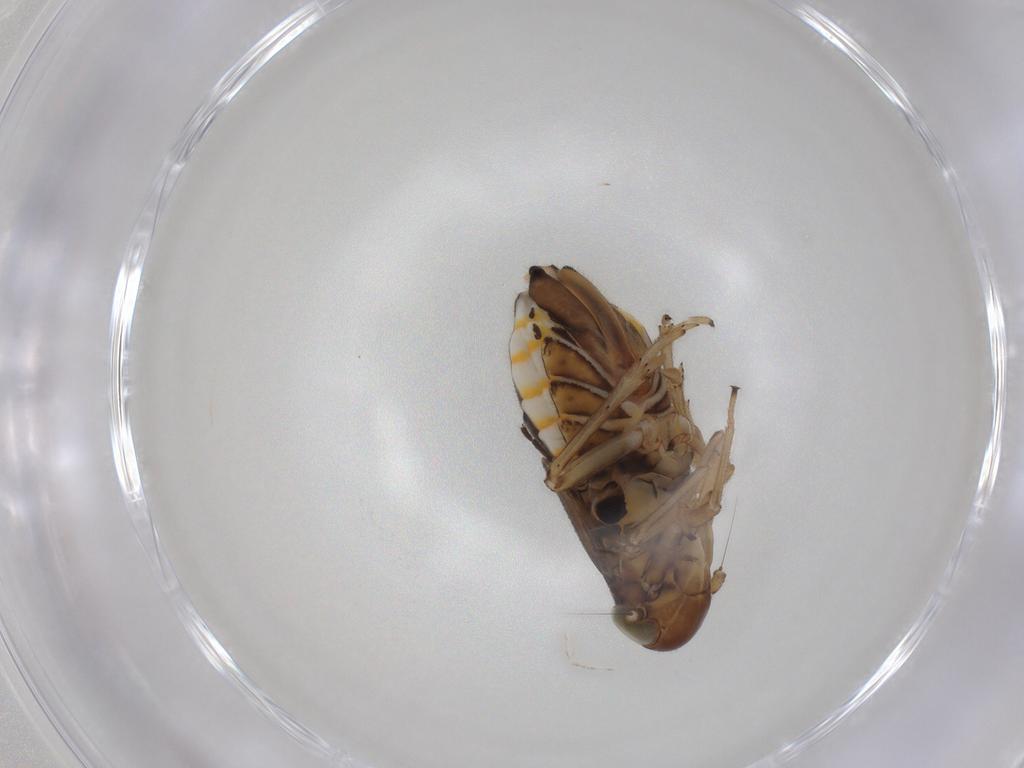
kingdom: Animalia
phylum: Arthropoda
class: Insecta
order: Hemiptera
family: Delphacidae
